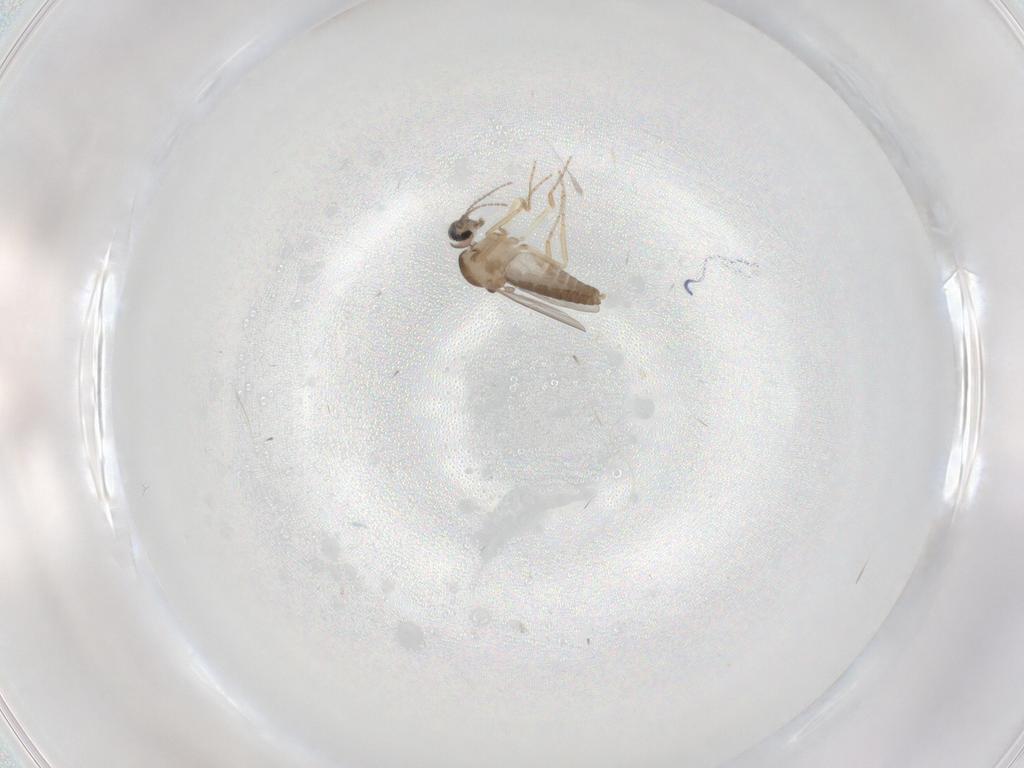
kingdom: Animalia
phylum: Arthropoda
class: Insecta
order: Diptera
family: Ceratopogonidae
